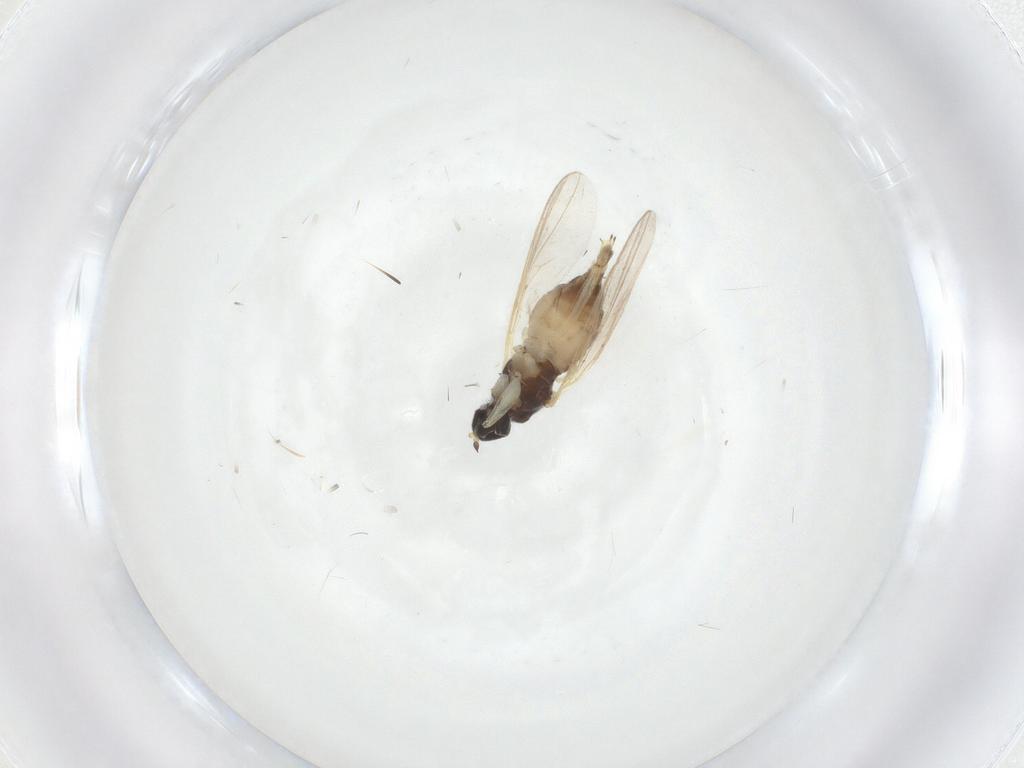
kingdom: Animalia
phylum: Arthropoda
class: Insecta
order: Diptera
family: Hybotidae
